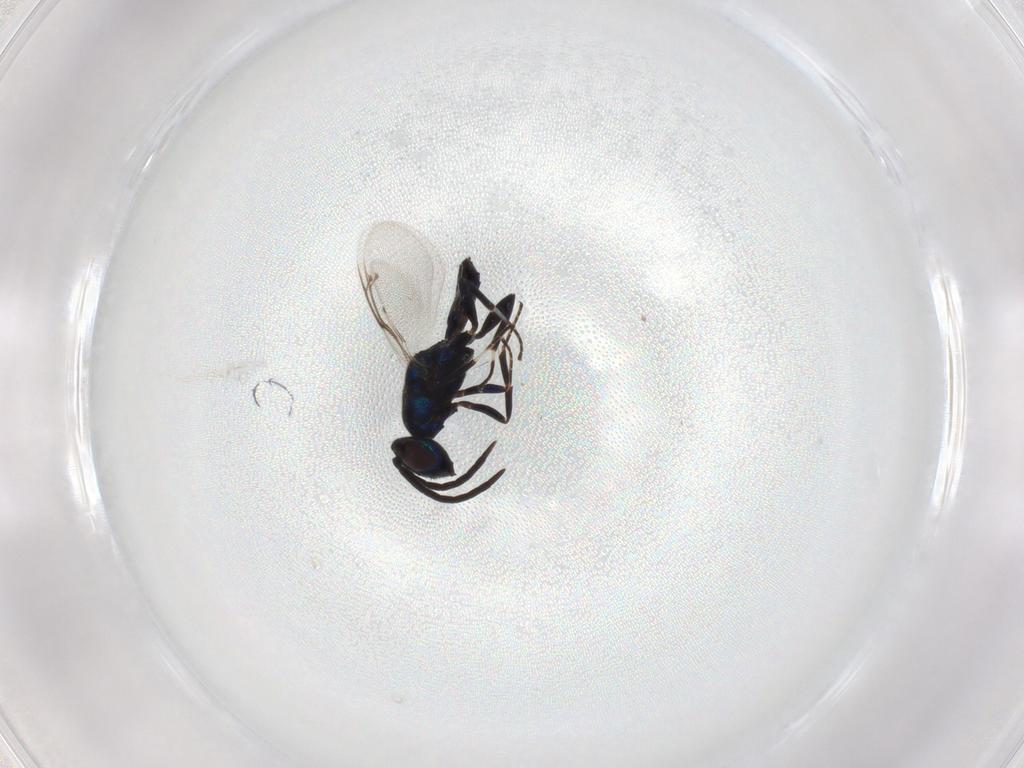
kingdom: Animalia
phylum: Arthropoda
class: Insecta
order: Hymenoptera
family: Eupelmidae
